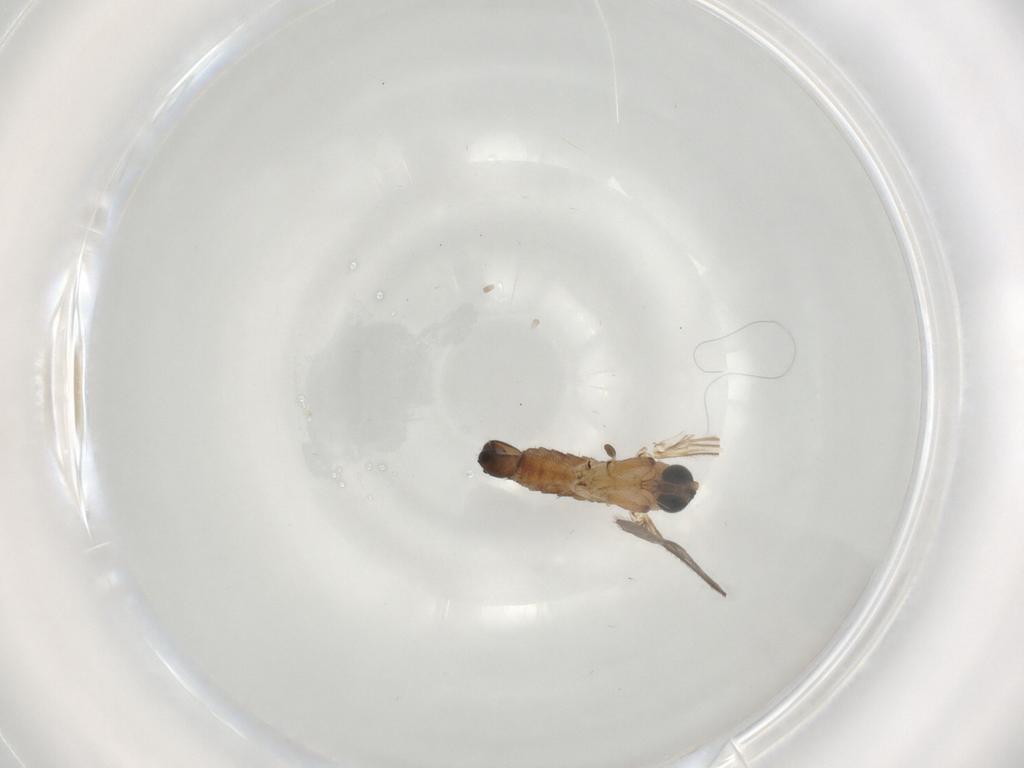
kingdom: Animalia
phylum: Arthropoda
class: Insecta
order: Diptera
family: Sciaridae
